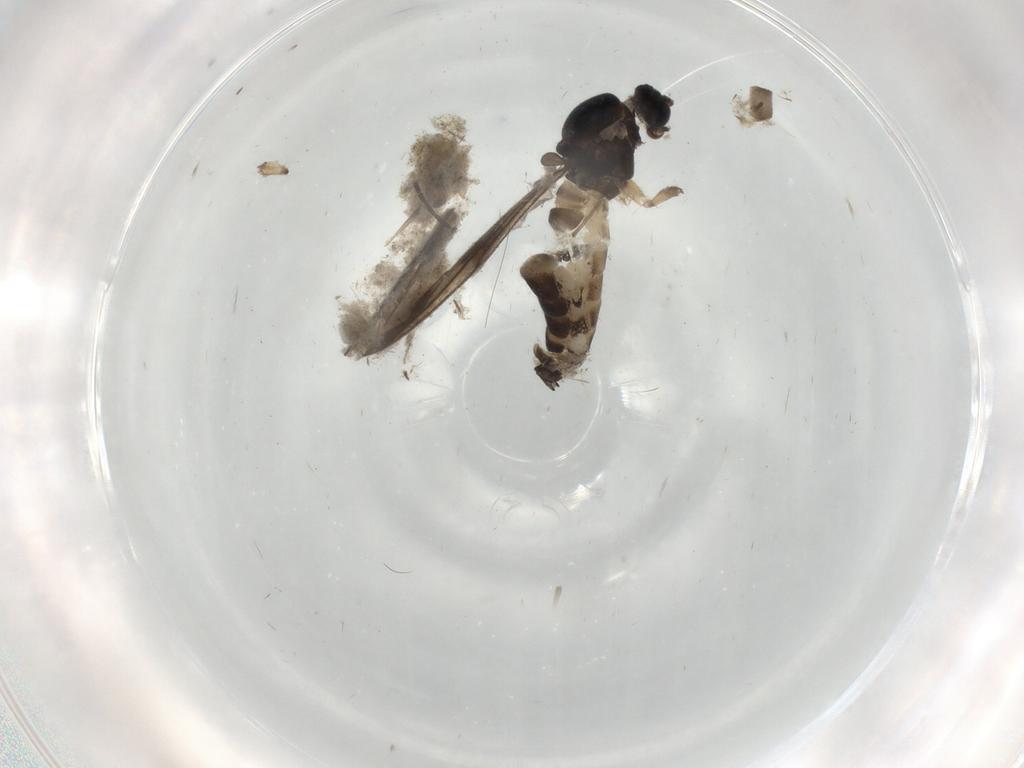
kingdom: Animalia
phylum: Arthropoda
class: Insecta
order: Diptera
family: Sciaridae
